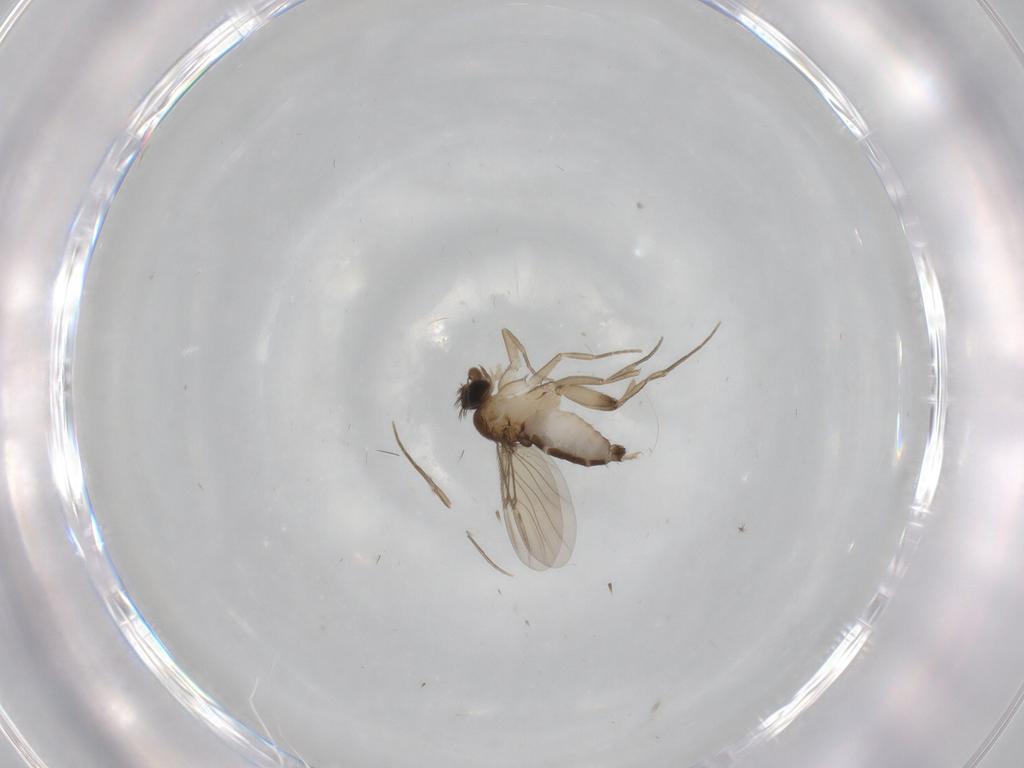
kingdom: Animalia
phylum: Arthropoda
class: Insecta
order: Diptera
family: Phoridae
